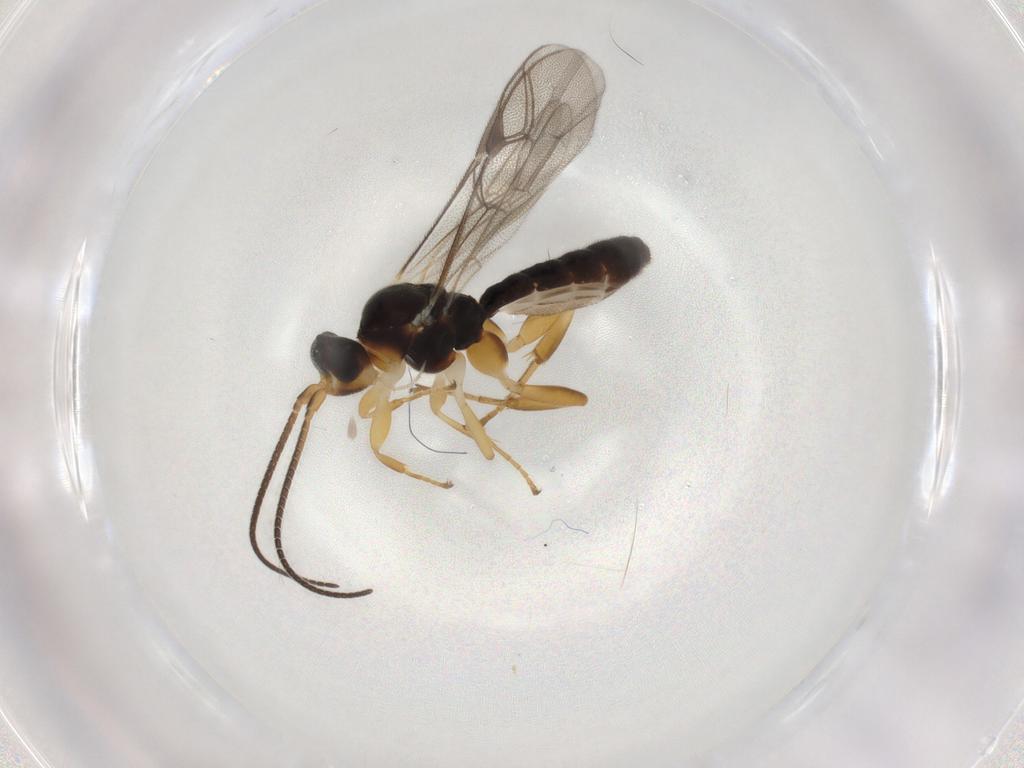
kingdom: Animalia
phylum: Arthropoda
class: Insecta
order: Hymenoptera
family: Ichneumonidae
